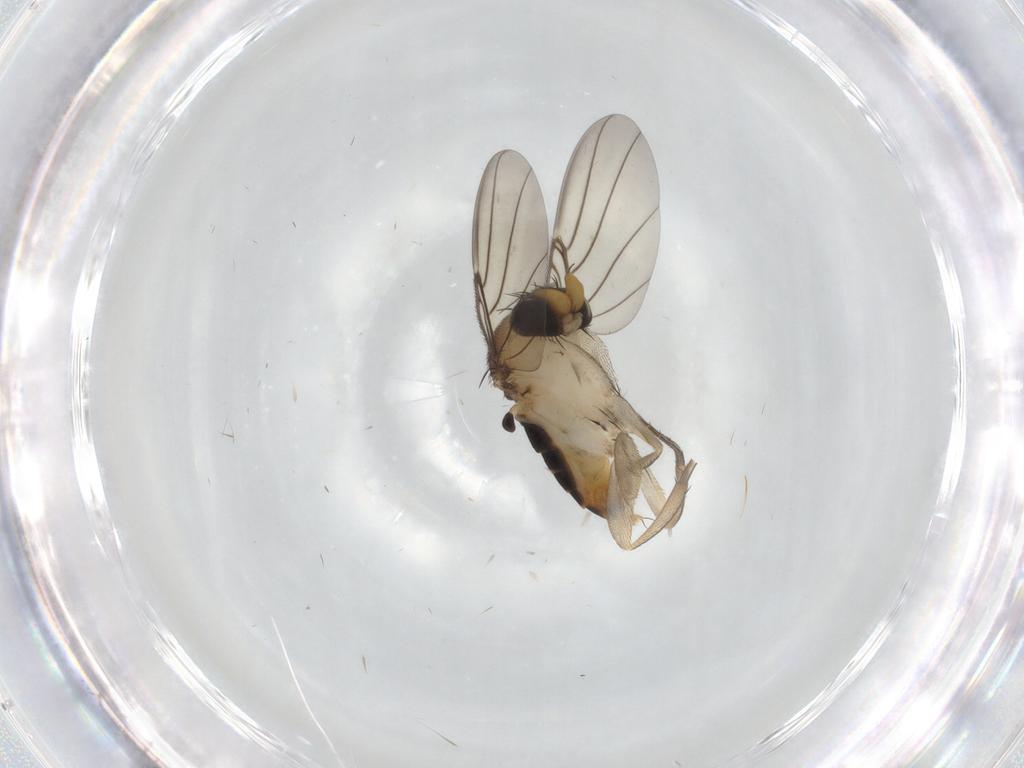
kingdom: Animalia
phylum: Arthropoda
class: Insecta
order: Diptera
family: Phoridae
